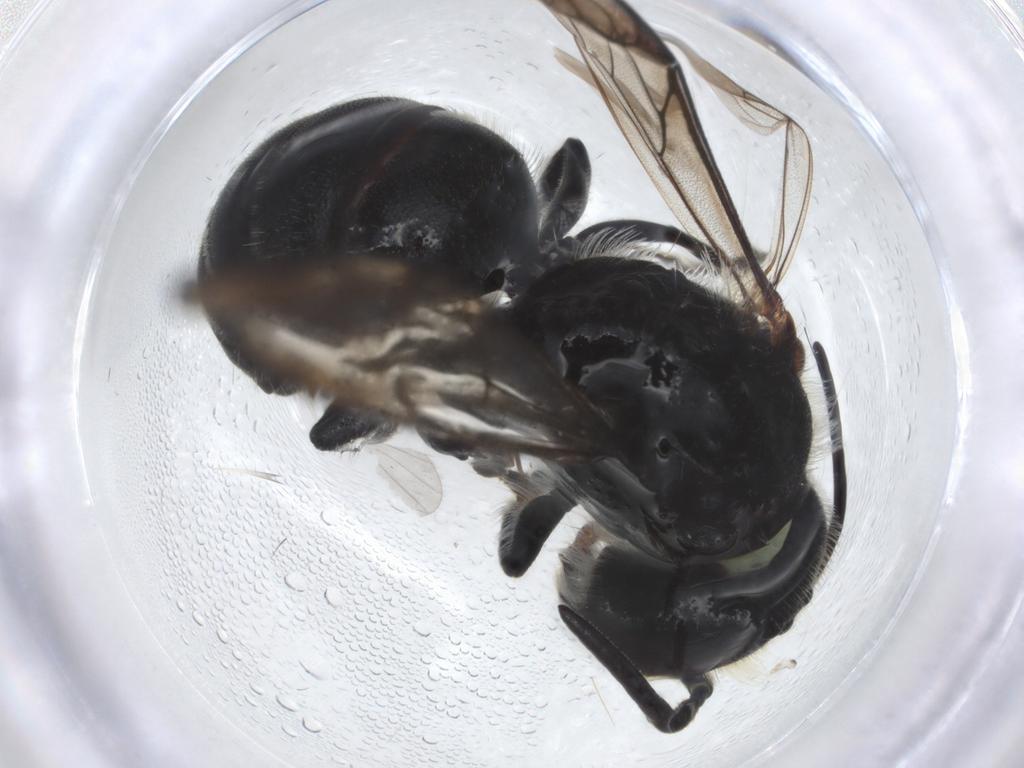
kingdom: Animalia
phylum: Arthropoda
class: Insecta
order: Hymenoptera
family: Megachilidae
